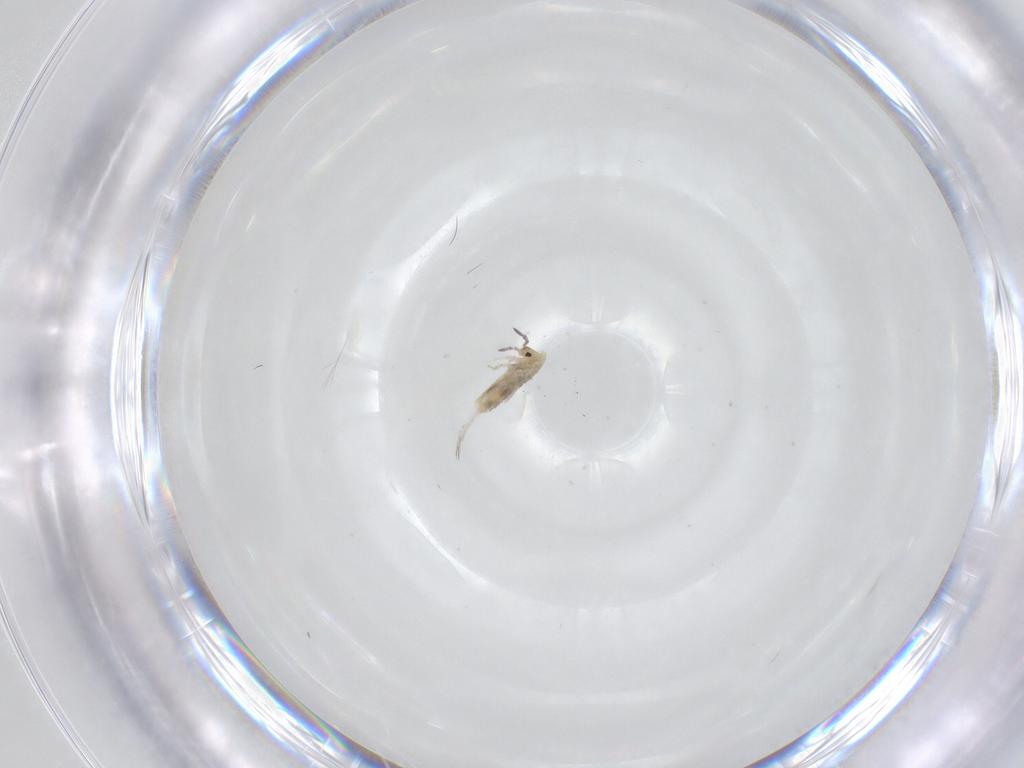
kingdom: Animalia
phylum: Arthropoda
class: Collembola
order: Entomobryomorpha
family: Entomobryidae
